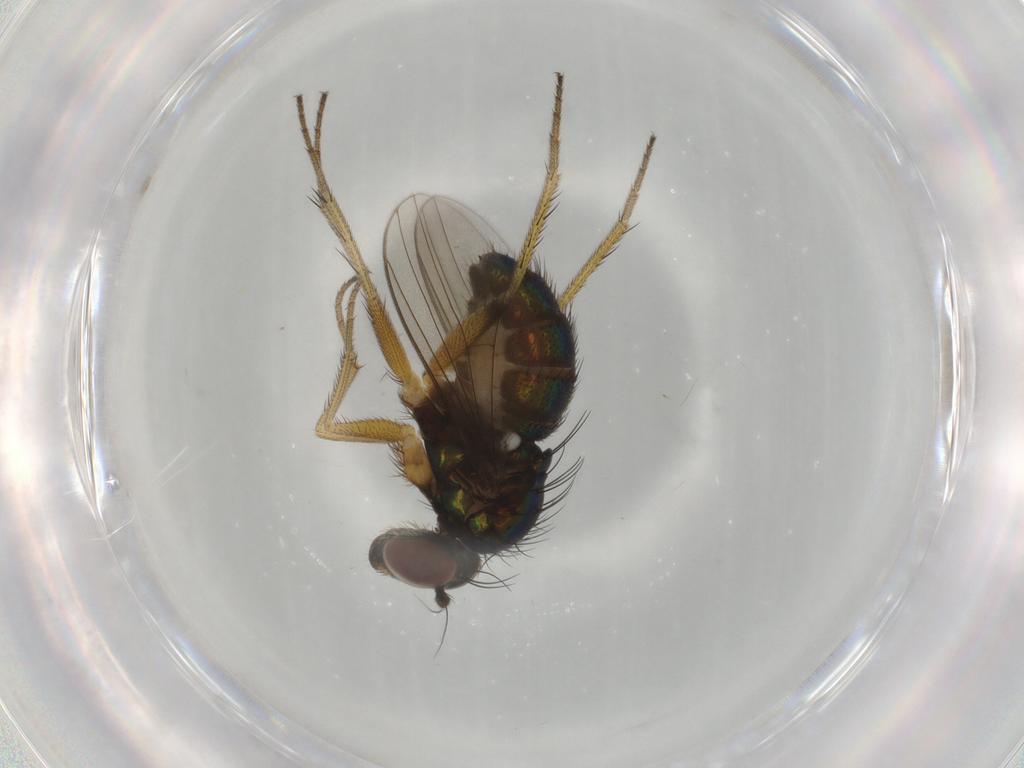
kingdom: Animalia
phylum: Arthropoda
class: Insecta
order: Diptera
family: Dolichopodidae
